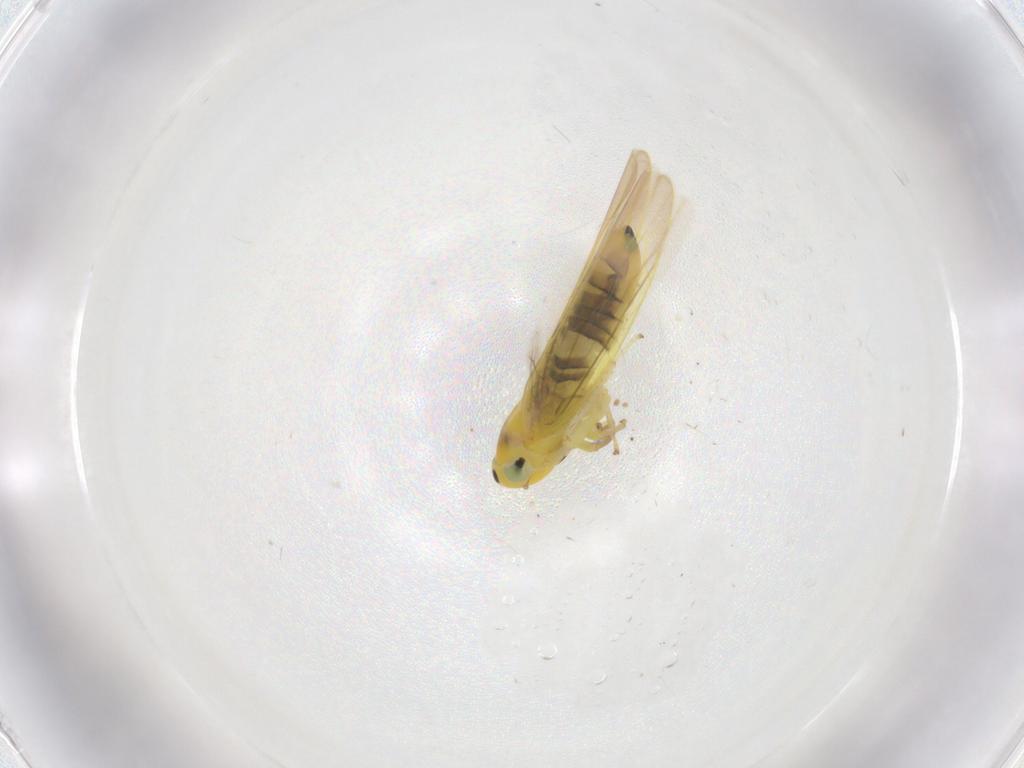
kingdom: Animalia
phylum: Arthropoda
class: Insecta
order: Hemiptera
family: Cicadellidae
